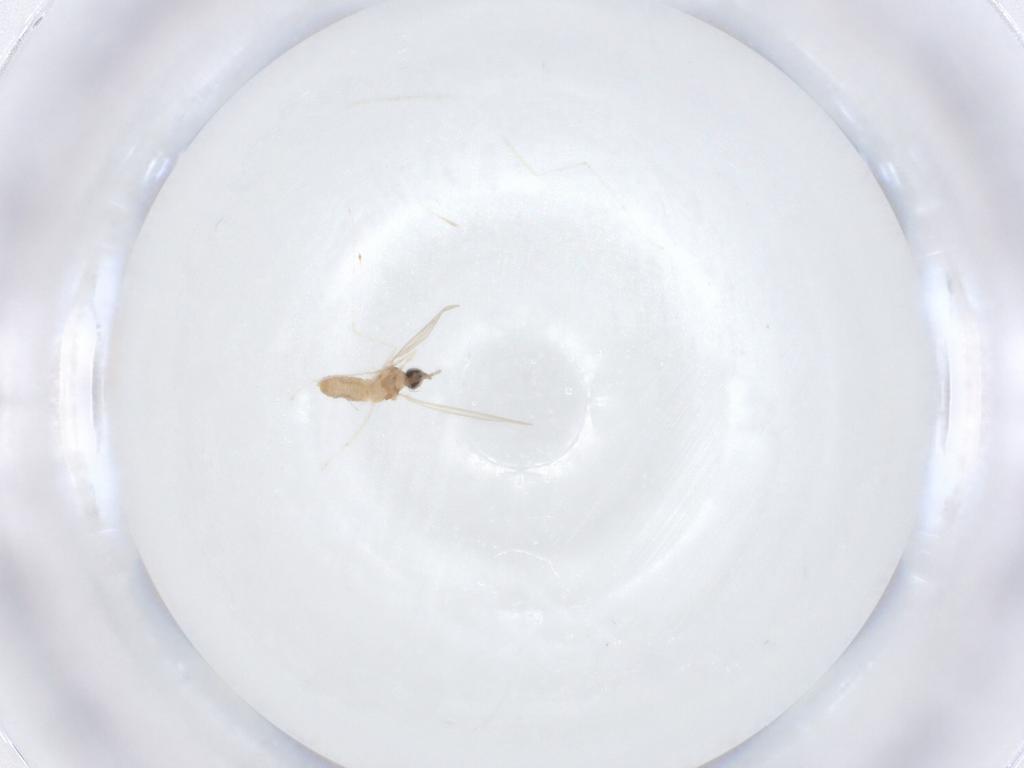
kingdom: Animalia
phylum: Arthropoda
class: Insecta
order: Diptera
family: Cecidomyiidae
